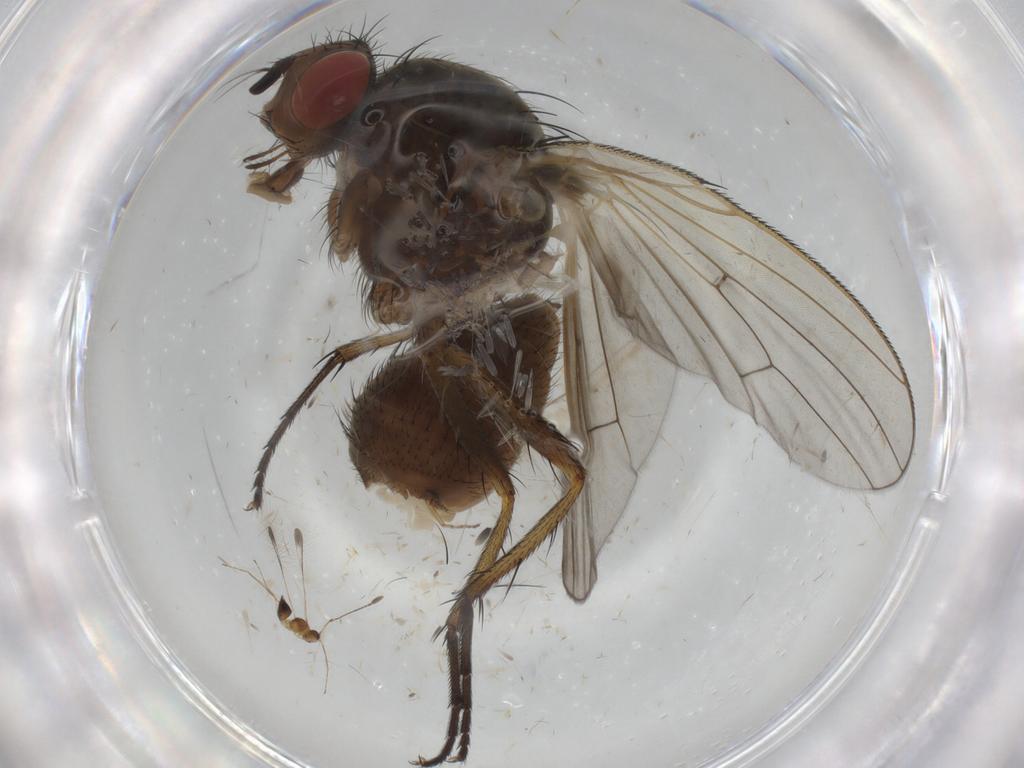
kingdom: Animalia
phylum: Arthropoda
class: Insecta
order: Diptera
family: Anthomyiidae
